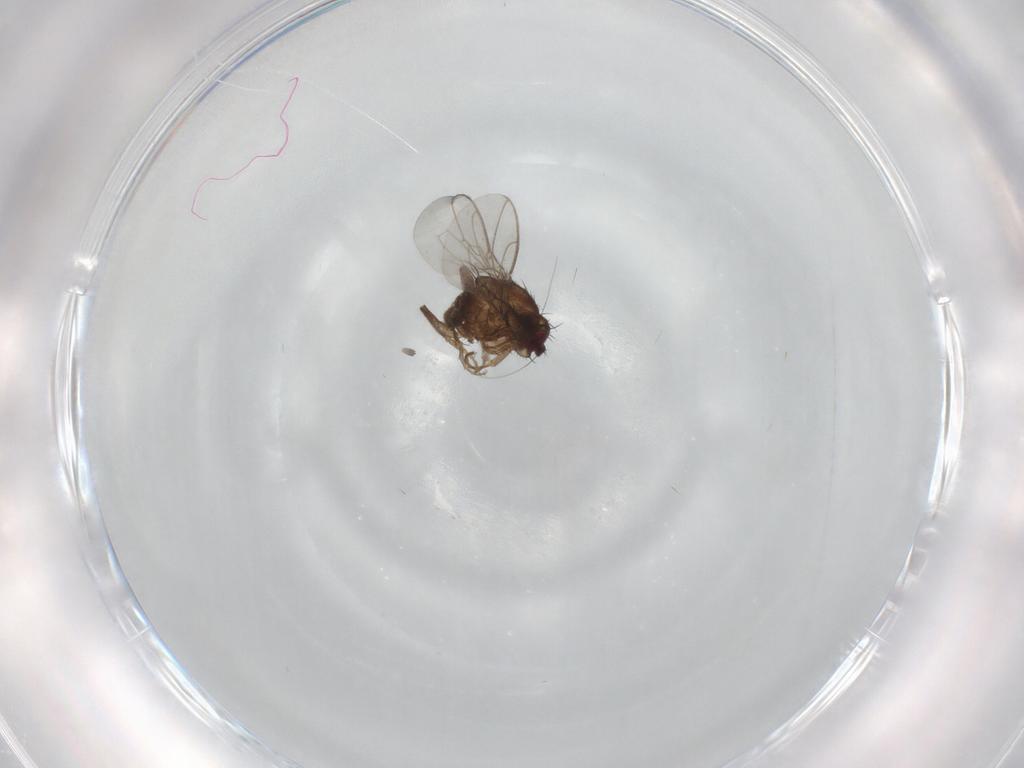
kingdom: Animalia
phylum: Arthropoda
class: Insecta
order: Diptera
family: Sphaeroceridae
